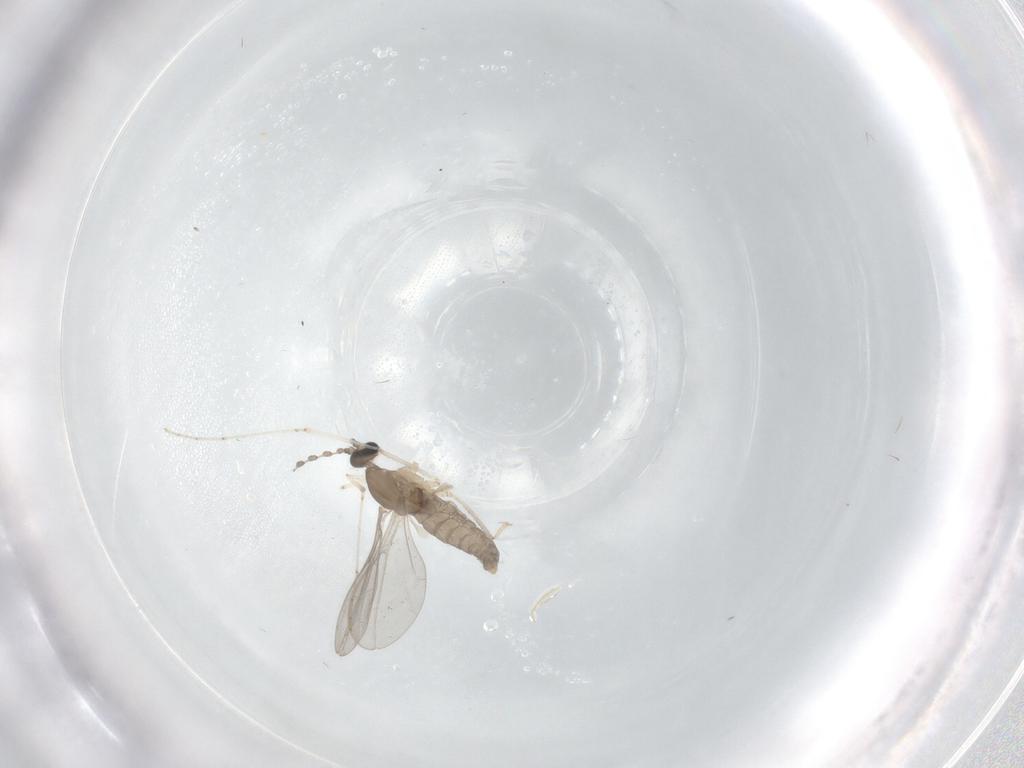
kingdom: Animalia
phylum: Arthropoda
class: Insecta
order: Diptera
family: Cecidomyiidae
